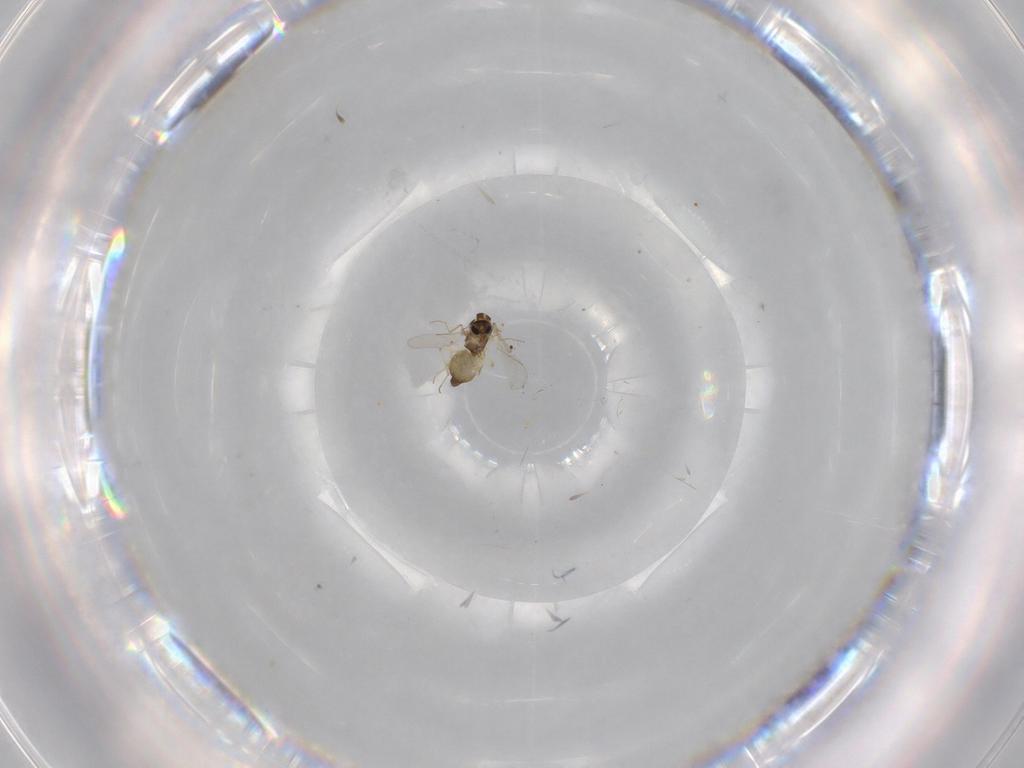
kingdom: Animalia
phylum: Arthropoda
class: Insecta
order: Diptera
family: Chironomidae
